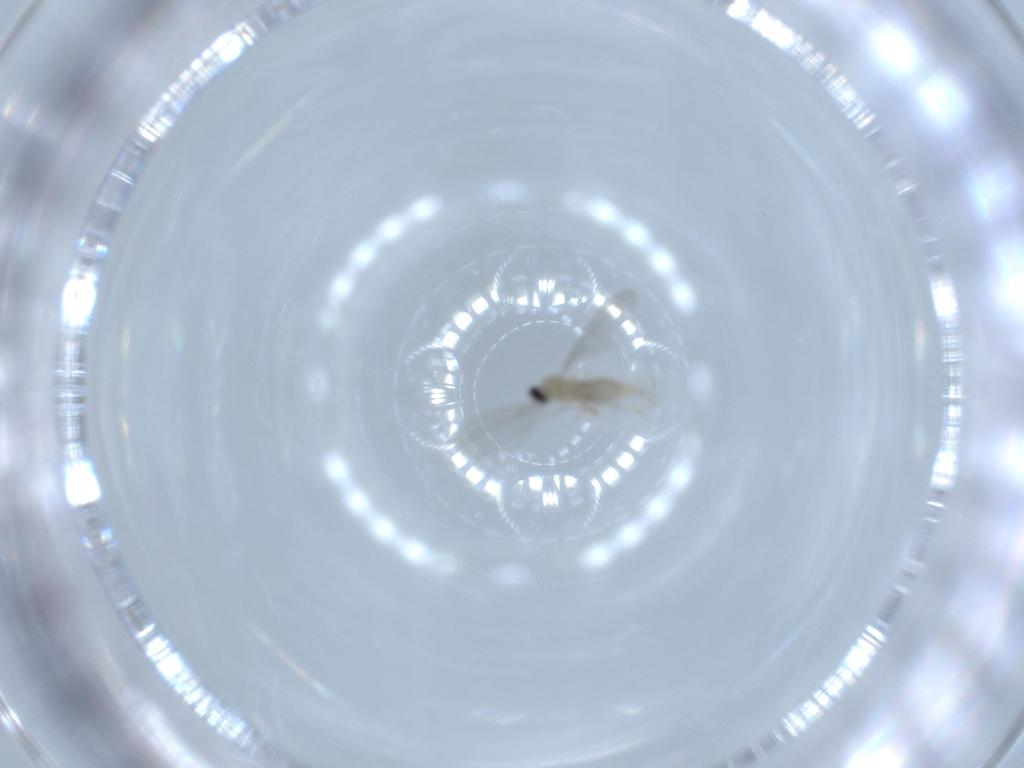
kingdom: Animalia
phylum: Arthropoda
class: Insecta
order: Diptera
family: Cecidomyiidae
